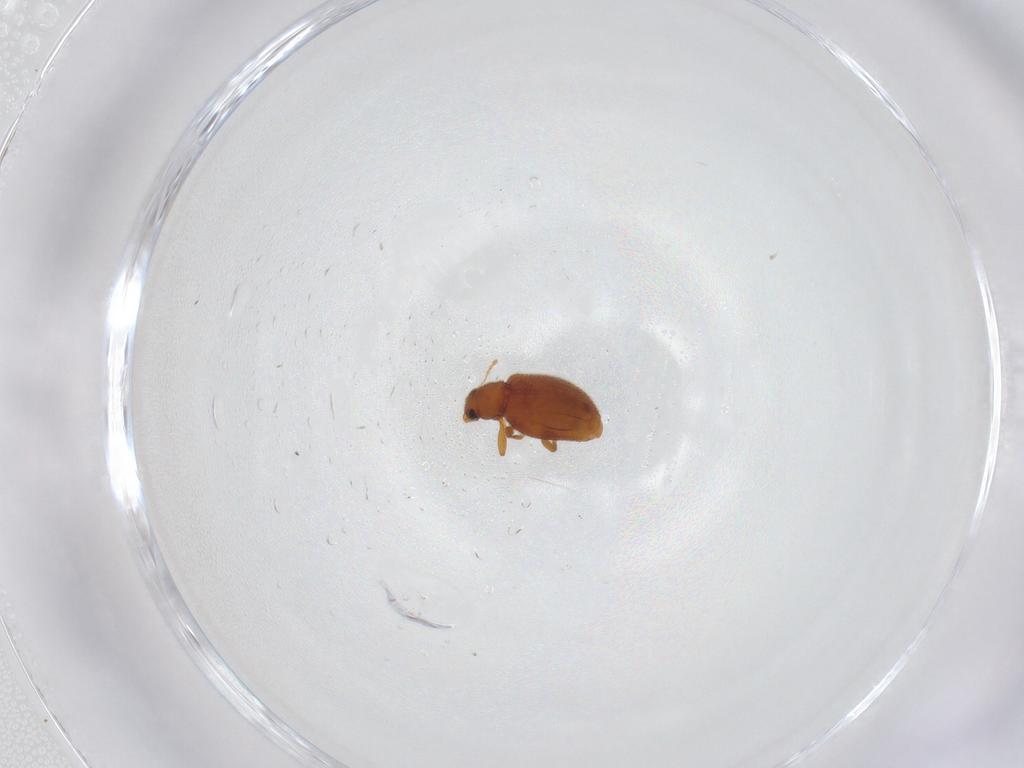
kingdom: Animalia
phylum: Arthropoda
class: Insecta
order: Coleoptera
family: Latridiidae
